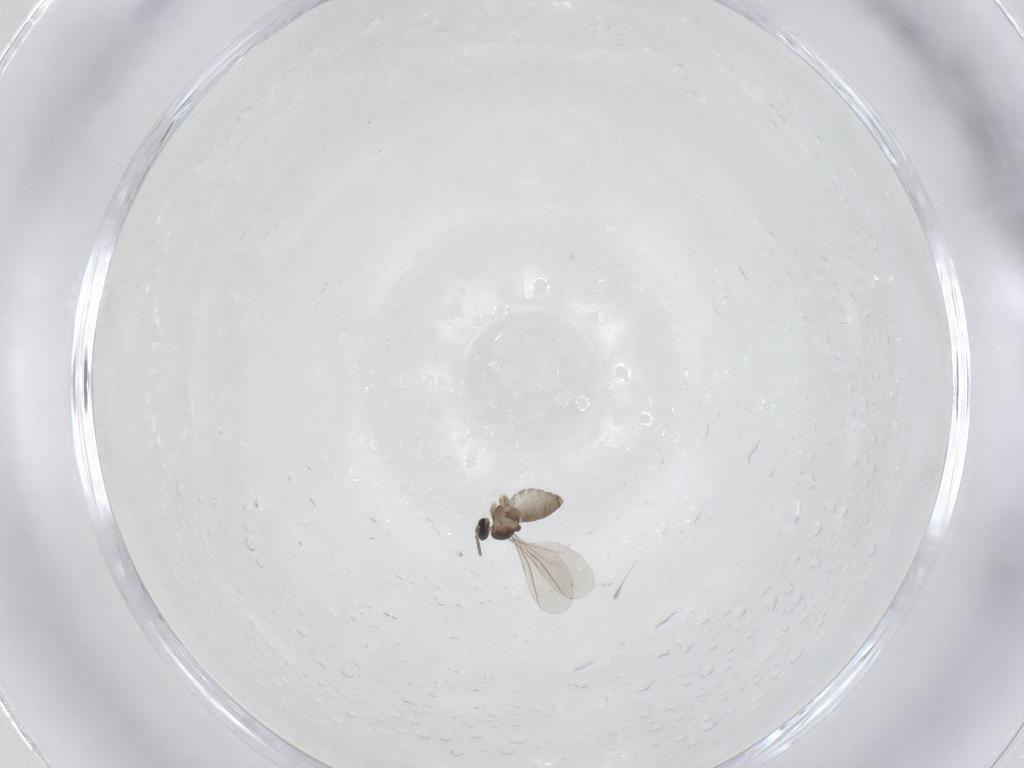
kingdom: Animalia
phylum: Arthropoda
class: Insecta
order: Diptera
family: Cecidomyiidae
